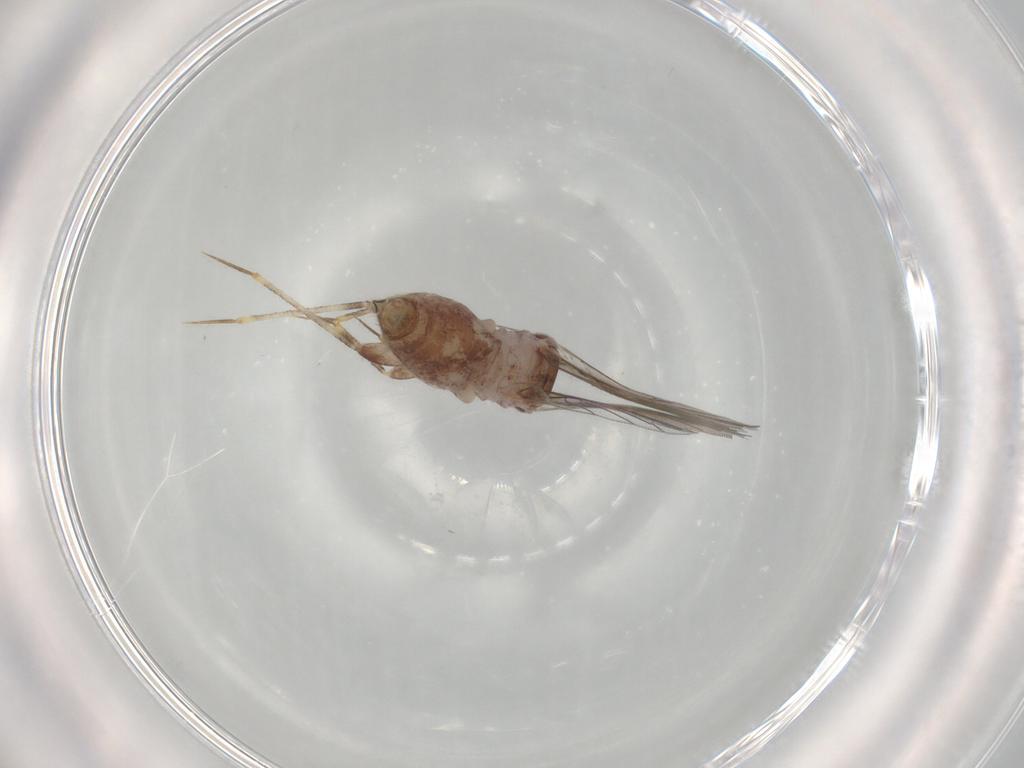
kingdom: Animalia
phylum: Arthropoda
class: Insecta
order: Psocodea
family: Lepidopsocidae
